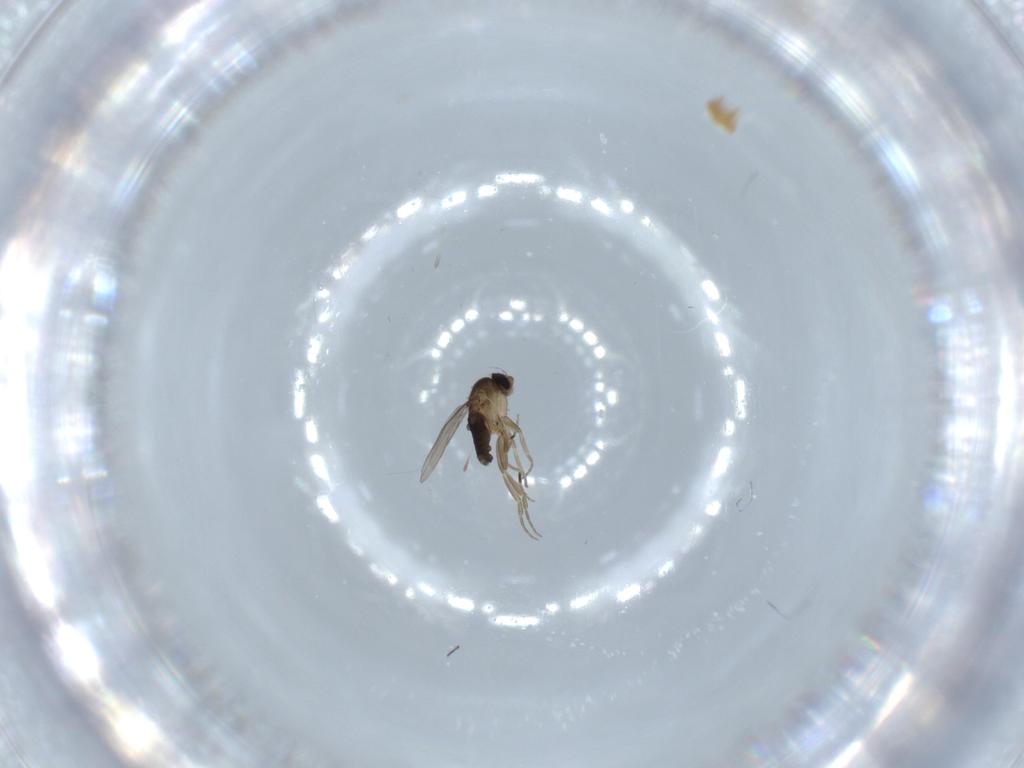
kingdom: Animalia
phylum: Arthropoda
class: Insecta
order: Diptera
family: Phoridae
